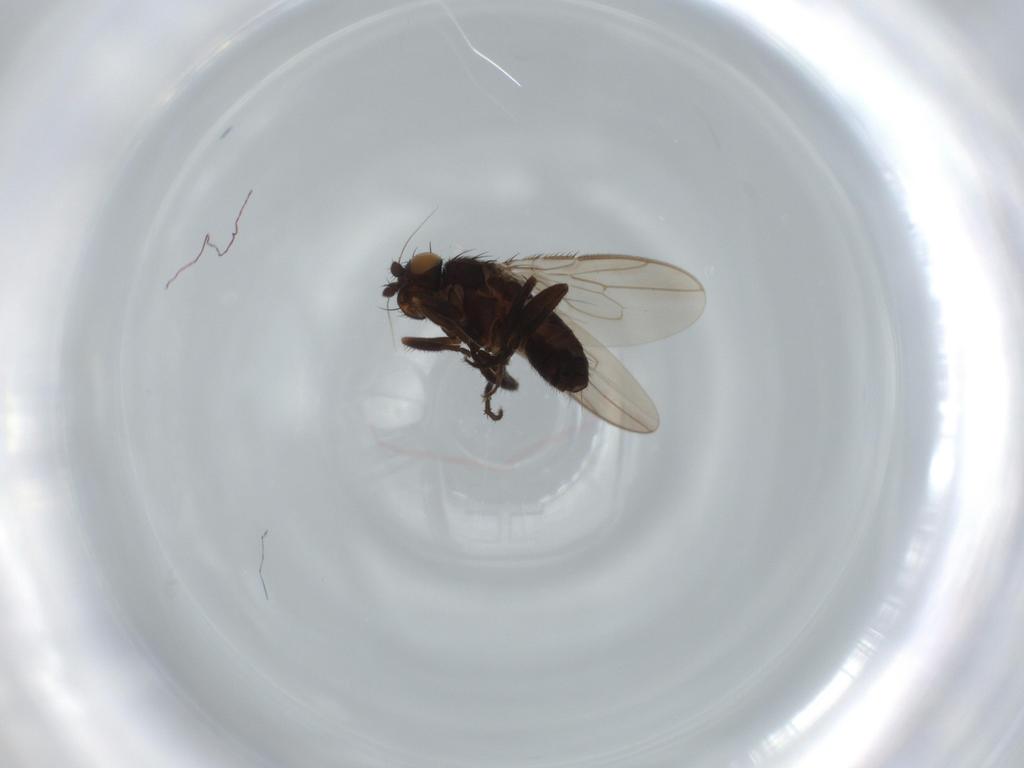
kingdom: Animalia
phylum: Arthropoda
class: Insecta
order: Diptera
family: Sphaeroceridae
